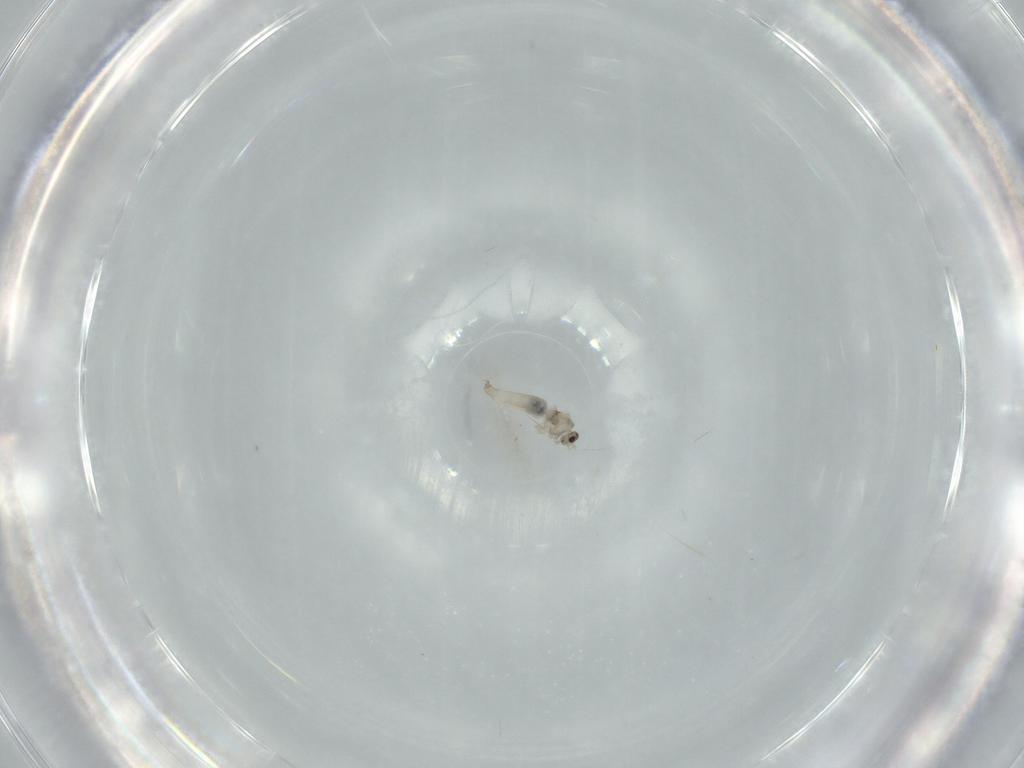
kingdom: Animalia
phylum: Arthropoda
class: Insecta
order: Diptera
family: Cecidomyiidae
